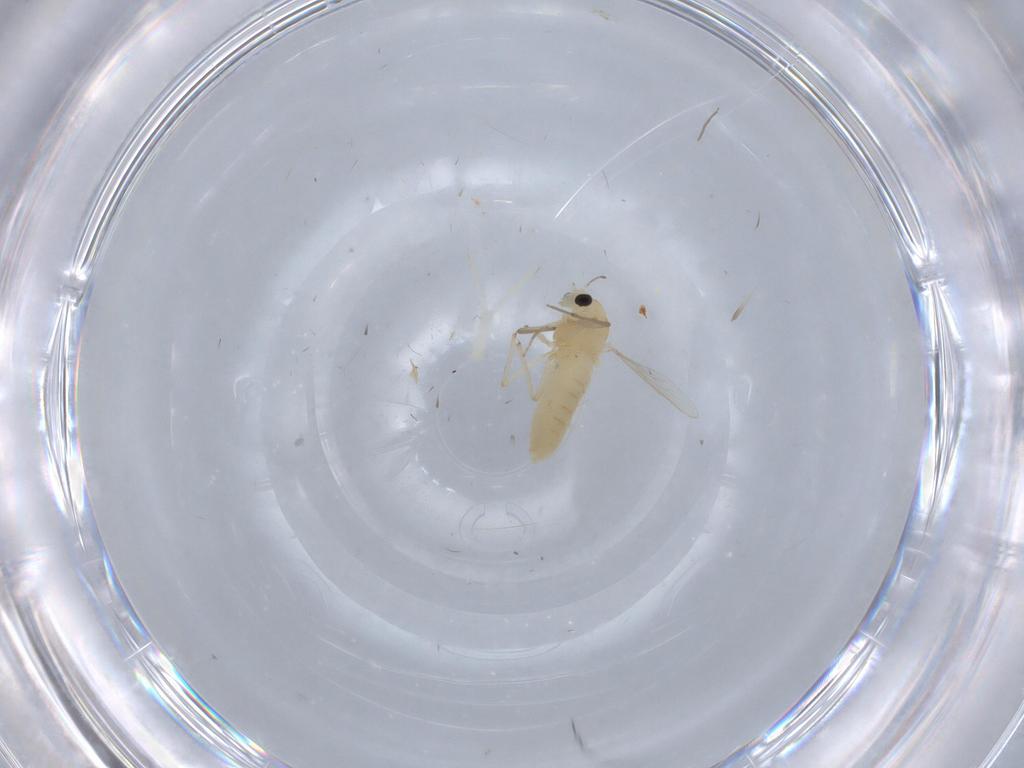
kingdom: Animalia
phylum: Arthropoda
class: Insecta
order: Diptera
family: Chironomidae
